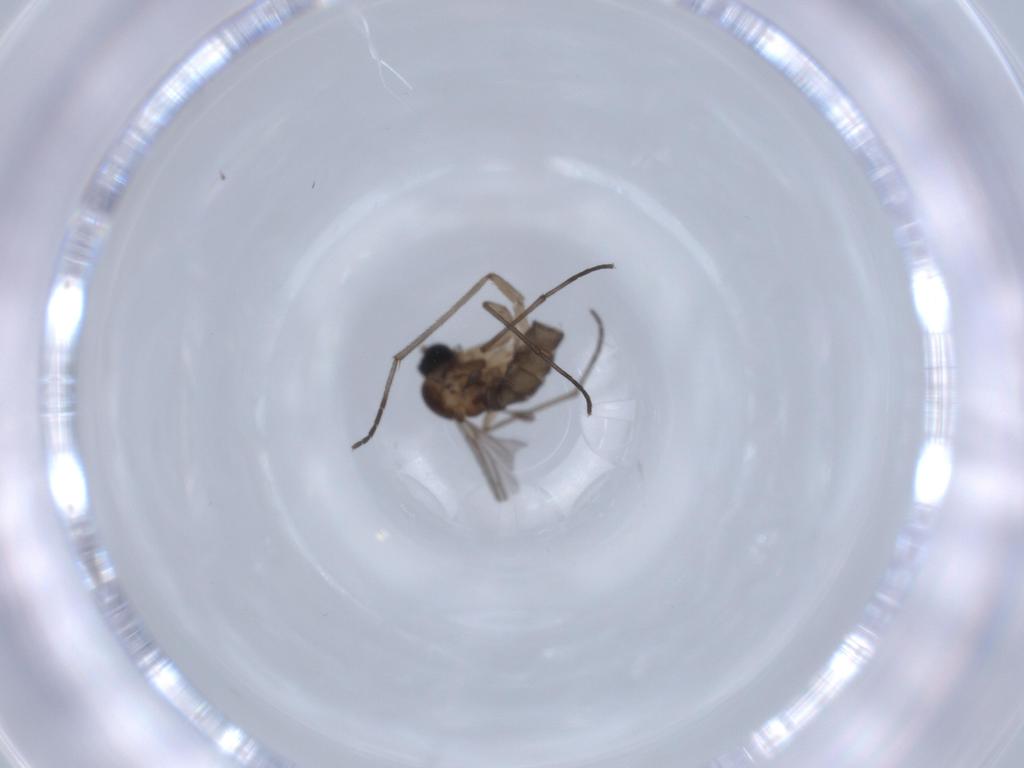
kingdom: Animalia
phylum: Arthropoda
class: Insecta
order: Diptera
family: Sciaridae
